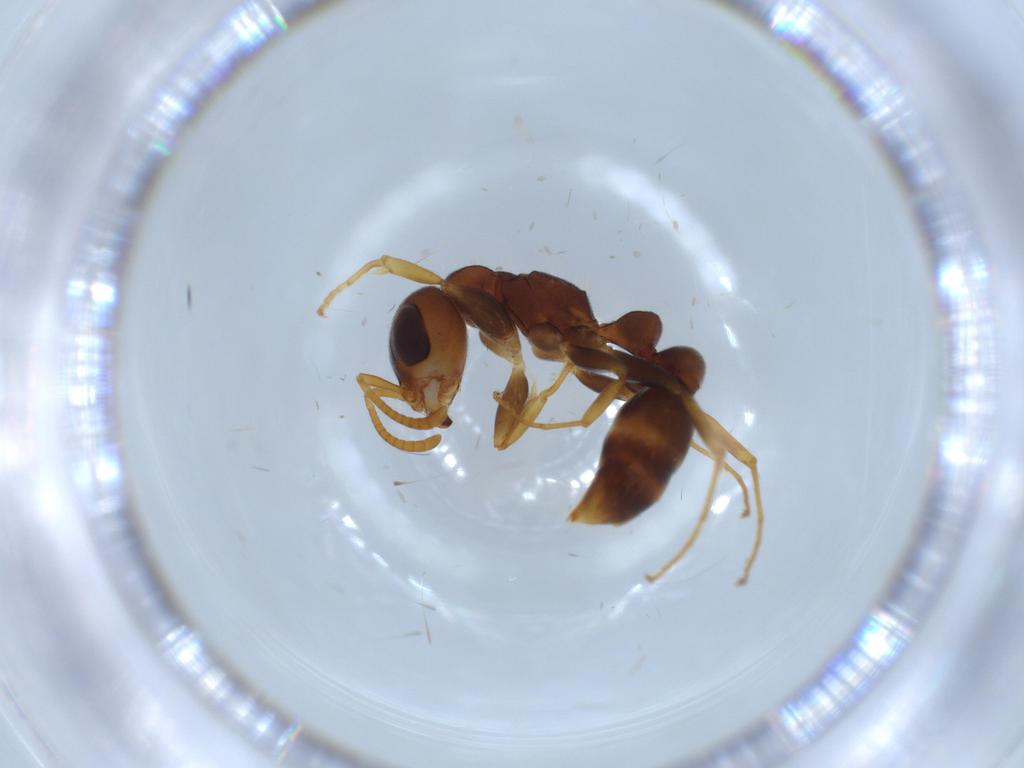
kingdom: Animalia
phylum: Arthropoda
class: Insecta
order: Hymenoptera
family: Formicidae
